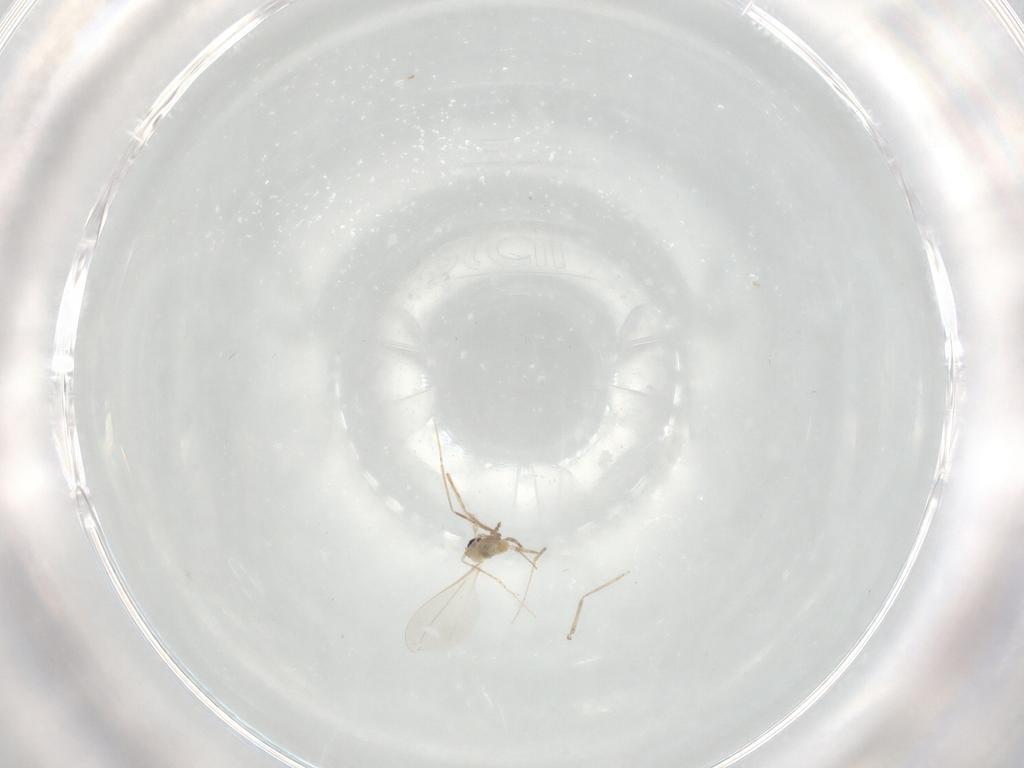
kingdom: Animalia
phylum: Arthropoda
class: Insecta
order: Diptera
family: Cecidomyiidae
